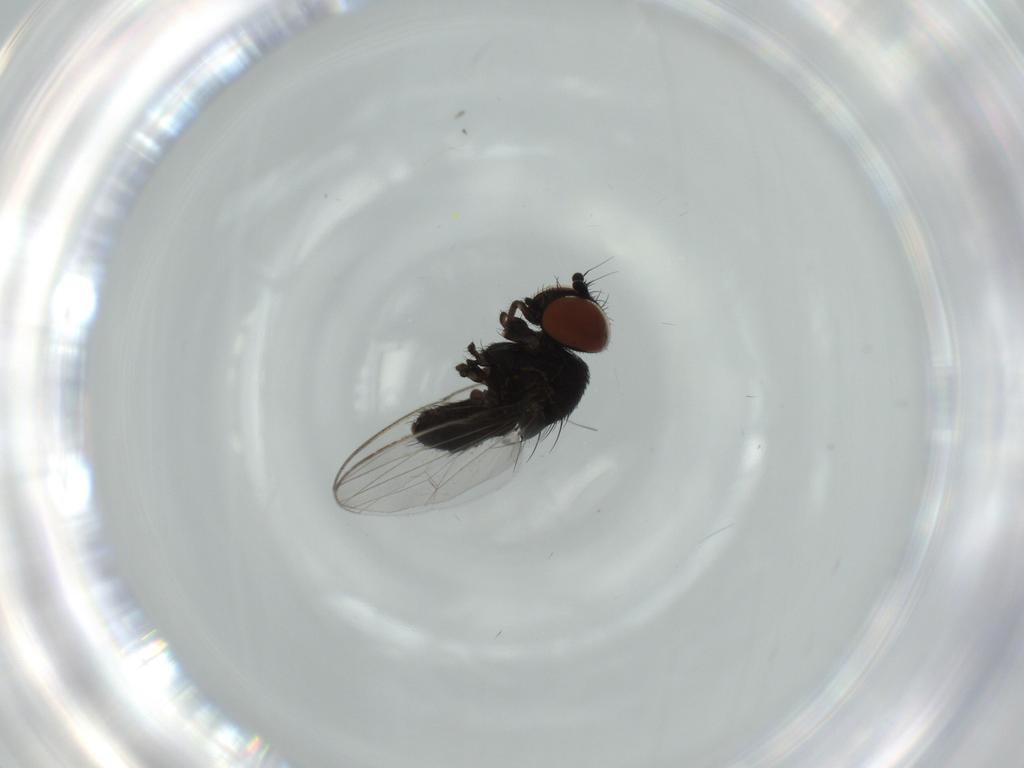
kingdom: Animalia
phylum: Arthropoda
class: Insecta
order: Diptera
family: Milichiidae
